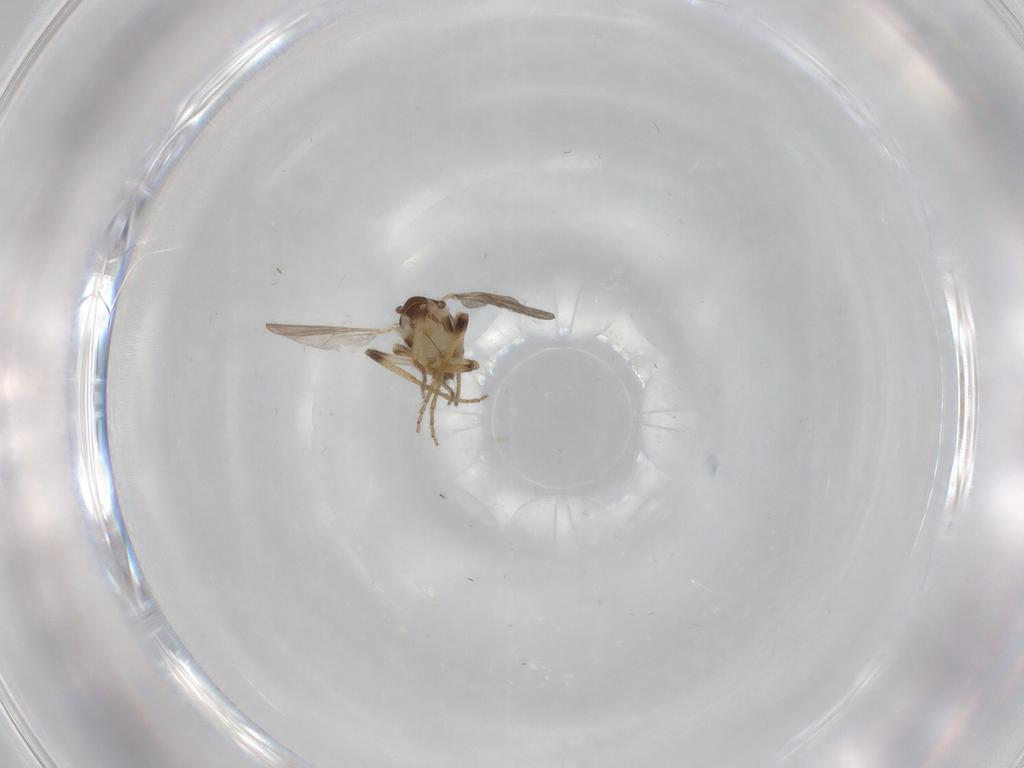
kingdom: Animalia
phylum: Arthropoda
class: Insecta
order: Diptera
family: Ceratopogonidae
